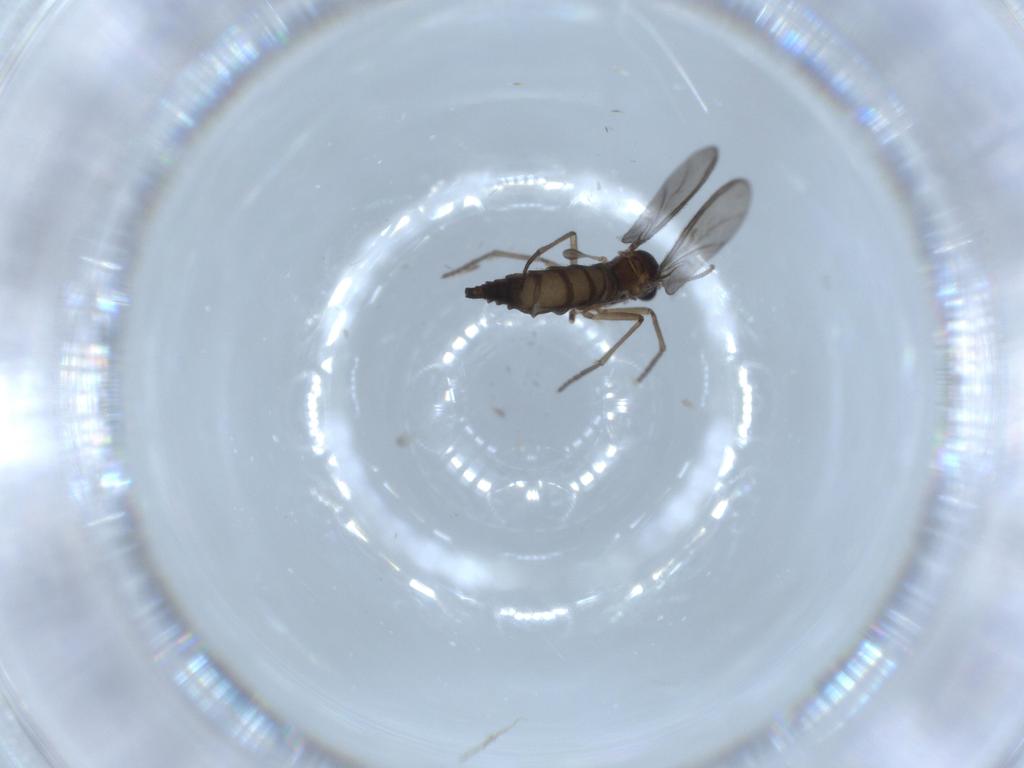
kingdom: Animalia
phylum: Arthropoda
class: Insecta
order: Diptera
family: Sciaridae
